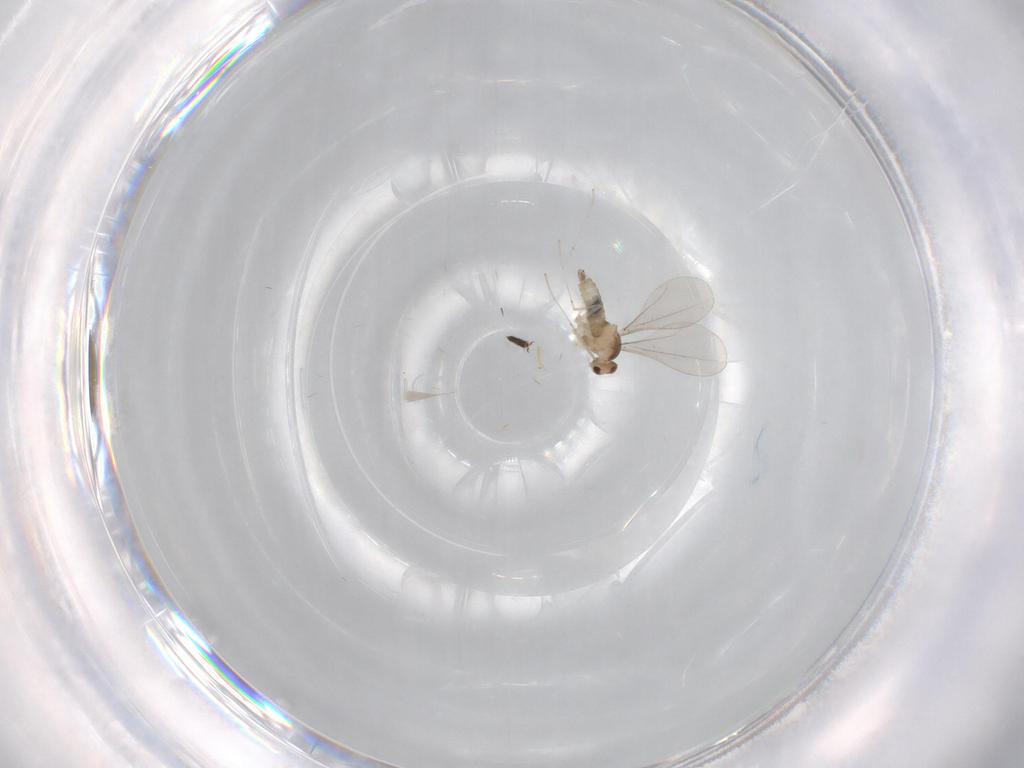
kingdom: Animalia
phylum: Arthropoda
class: Insecta
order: Diptera
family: Cecidomyiidae
